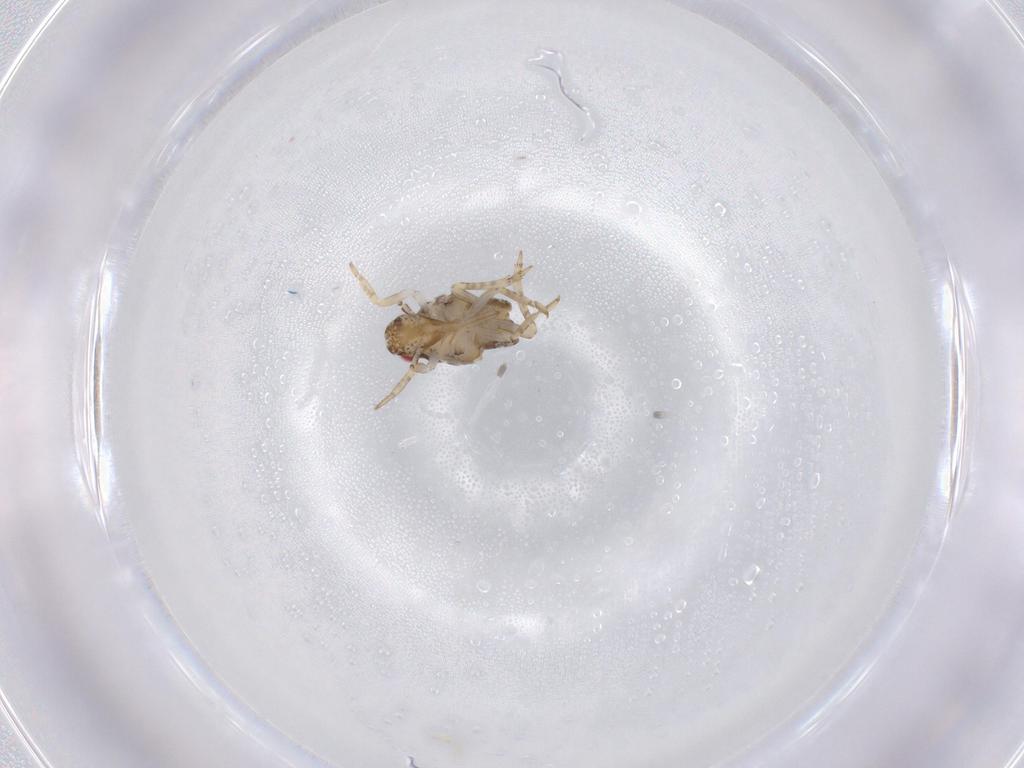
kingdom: Animalia
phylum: Arthropoda
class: Insecta
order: Hemiptera
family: Flatidae
